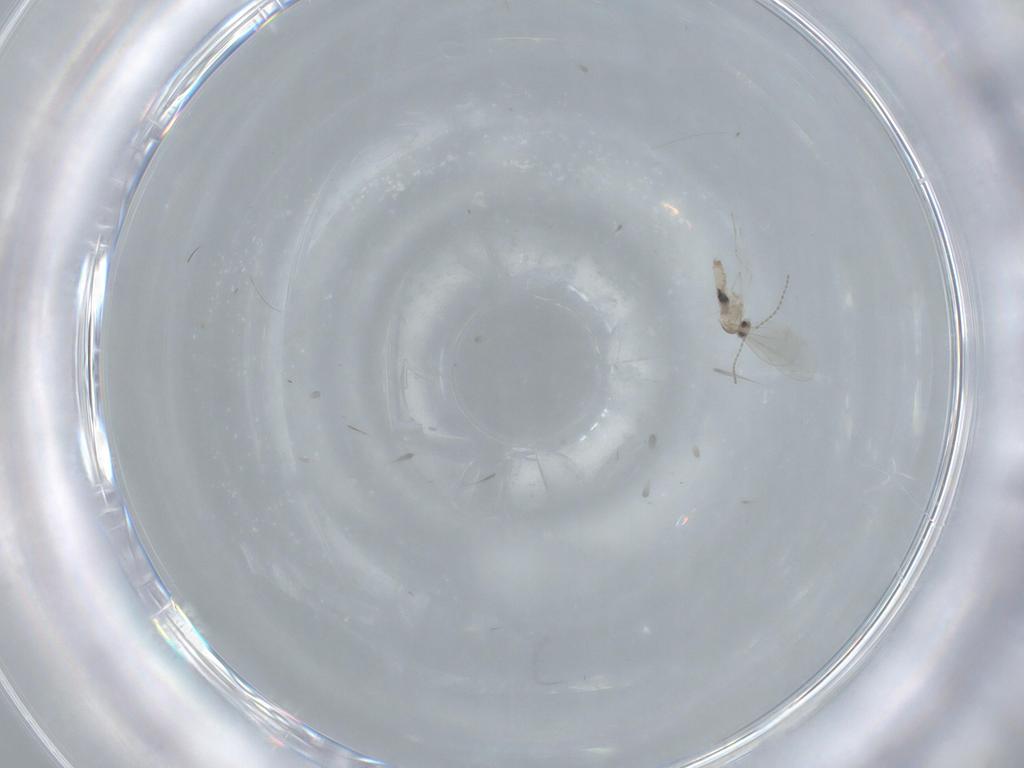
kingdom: Animalia
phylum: Arthropoda
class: Insecta
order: Diptera
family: Cecidomyiidae
